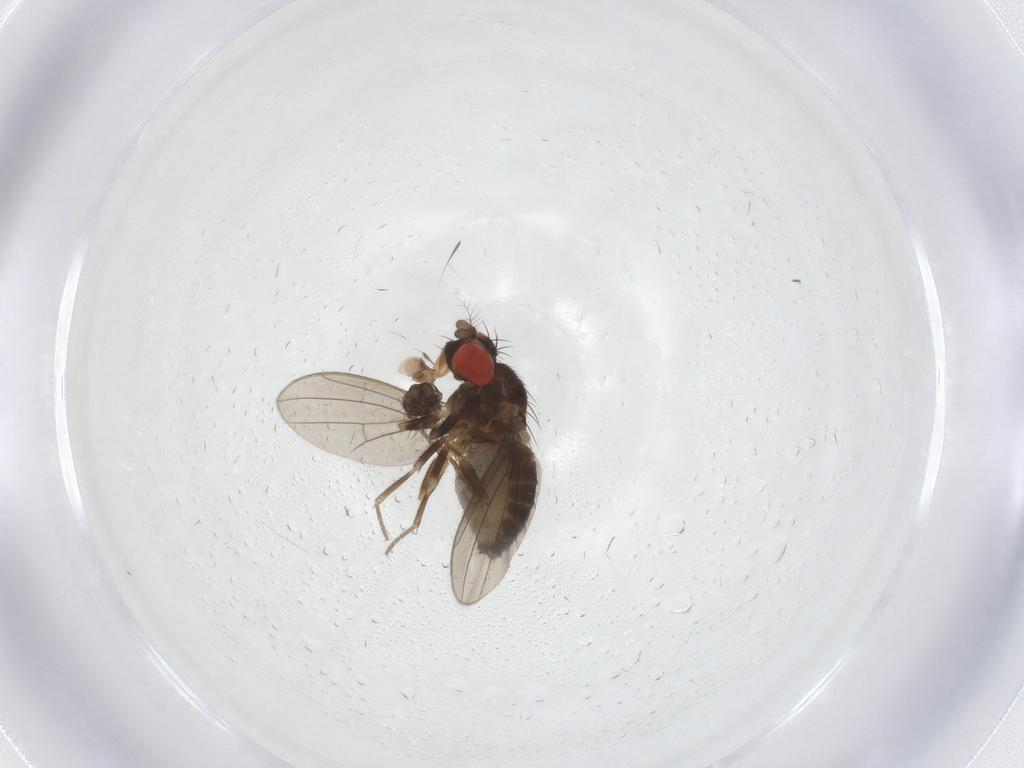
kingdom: Animalia
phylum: Arthropoda
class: Insecta
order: Diptera
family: Drosophilidae
